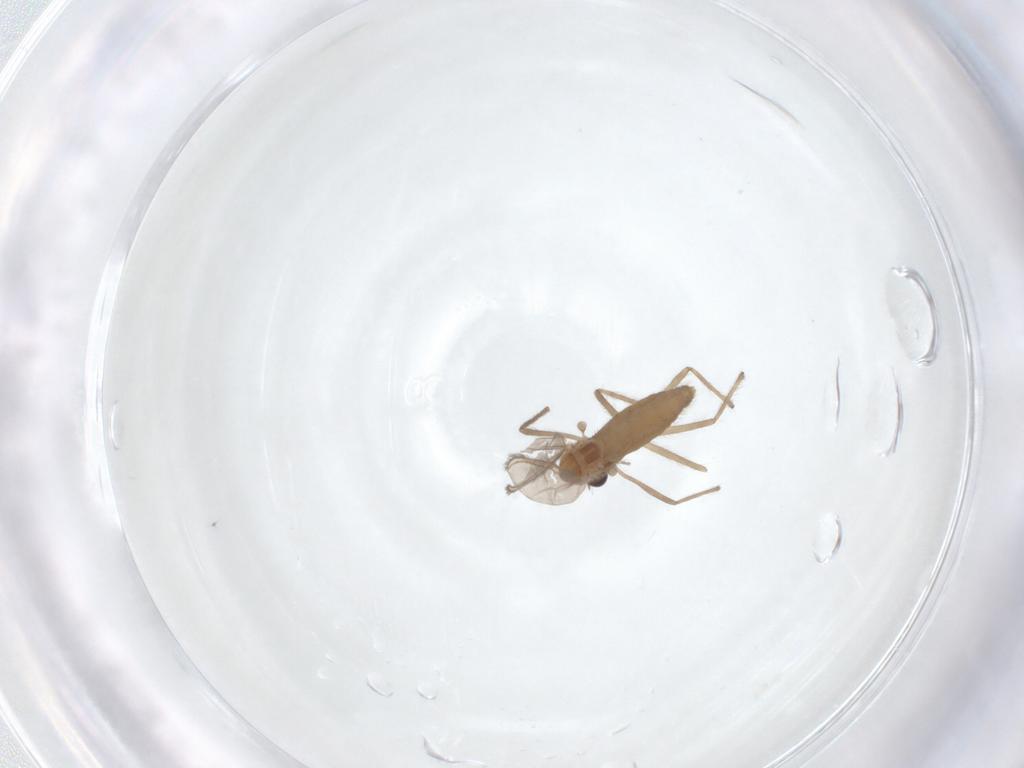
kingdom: Animalia
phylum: Arthropoda
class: Insecta
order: Diptera
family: Chironomidae
